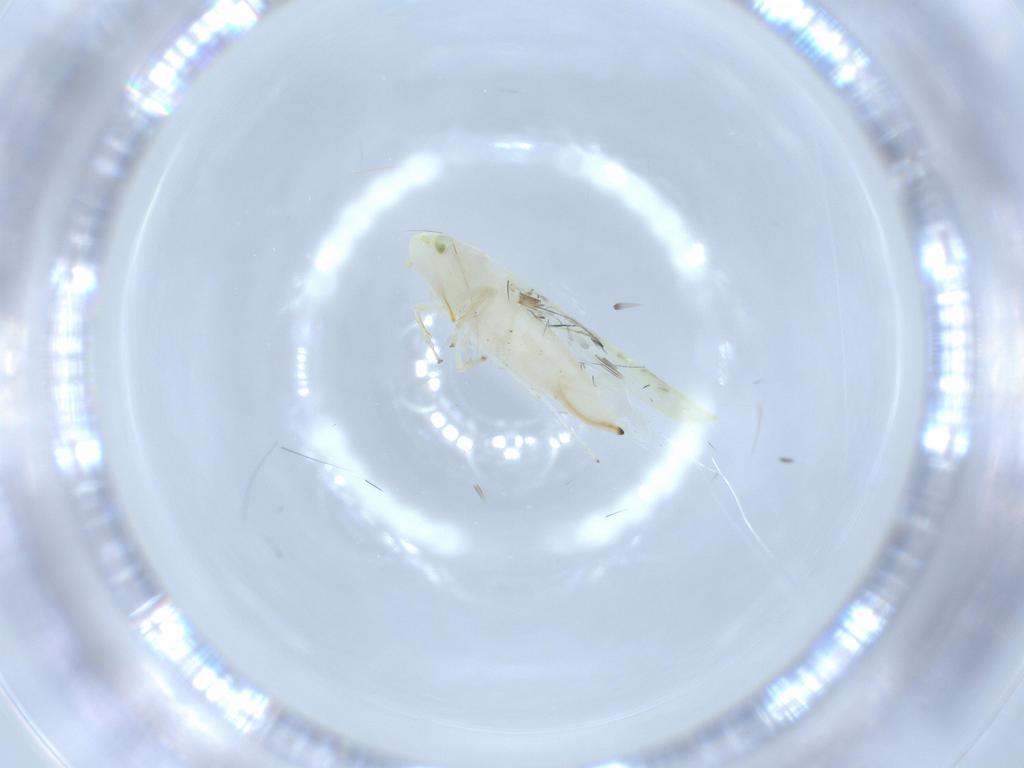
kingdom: Animalia
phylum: Arthropoda
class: Insecta
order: Hemiptera
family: Cicadellidae
